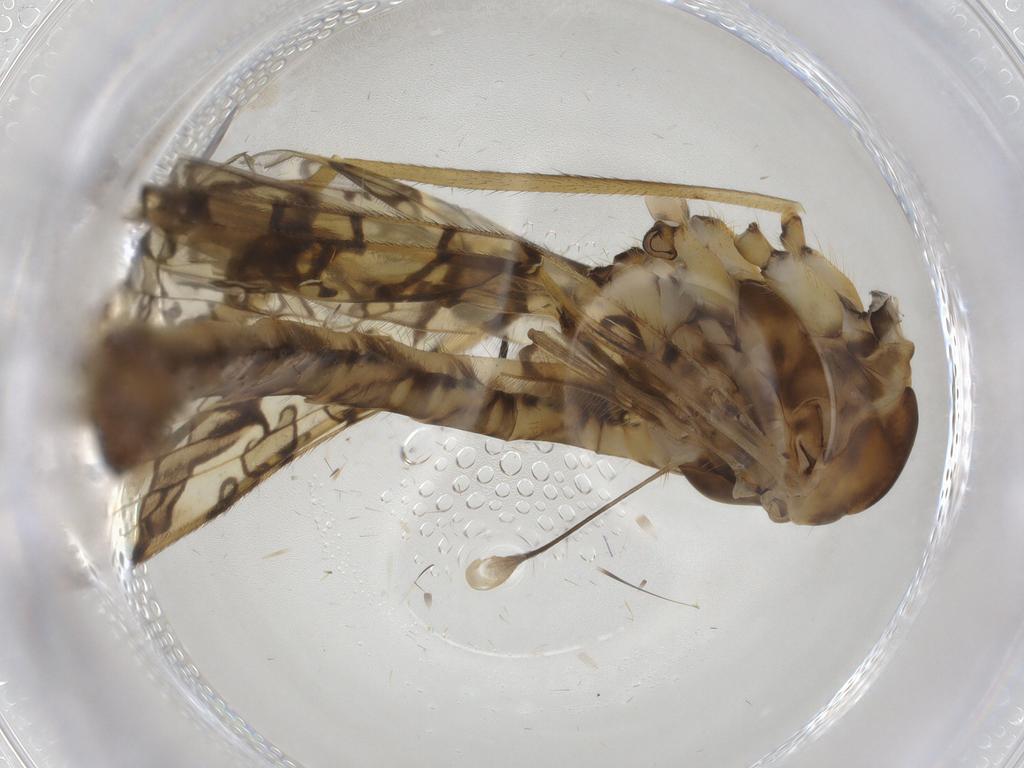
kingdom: Animalia
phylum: Arthropoda
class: Insecta
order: Diptera
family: Limoniidae
